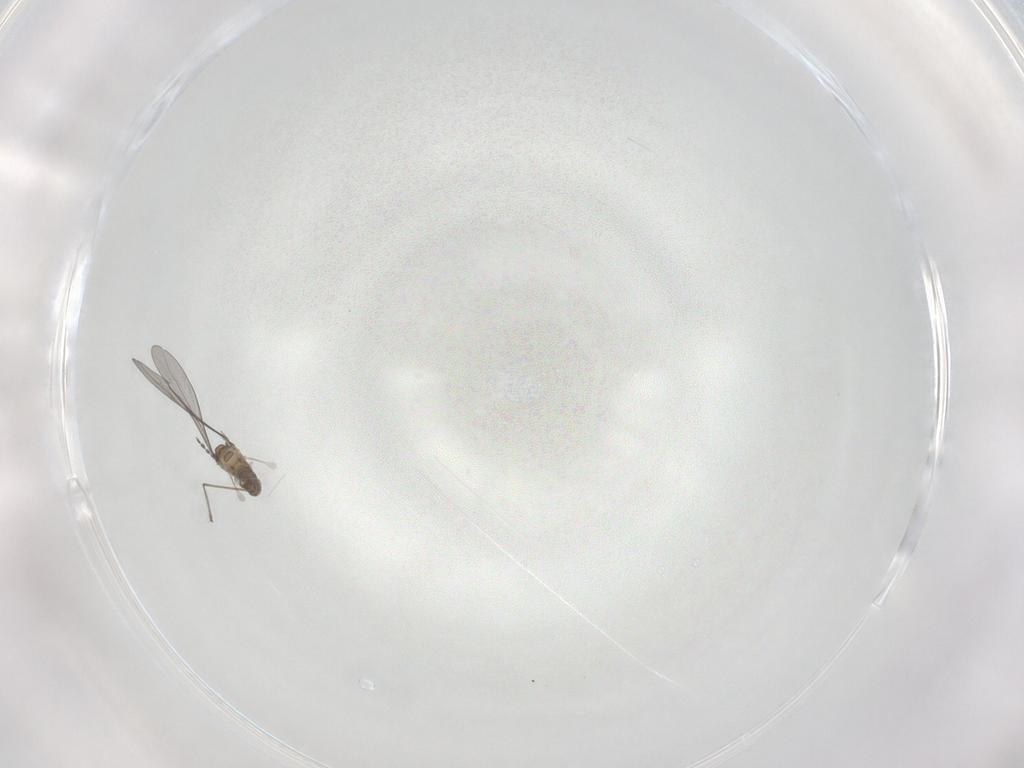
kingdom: Animalia
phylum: Arthropoda
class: Insecta
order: Diptera
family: Cecidomyiidae
